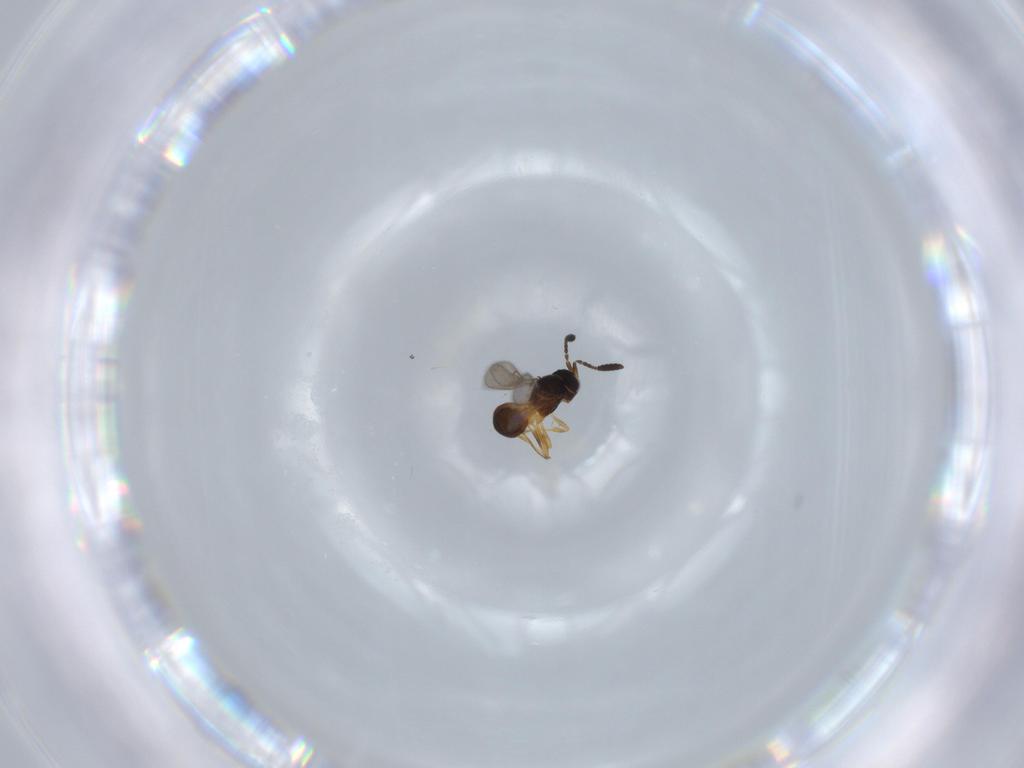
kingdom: Animalia
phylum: Arthropoda
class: Insecta
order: Hymenoptera
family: Scelionidae
